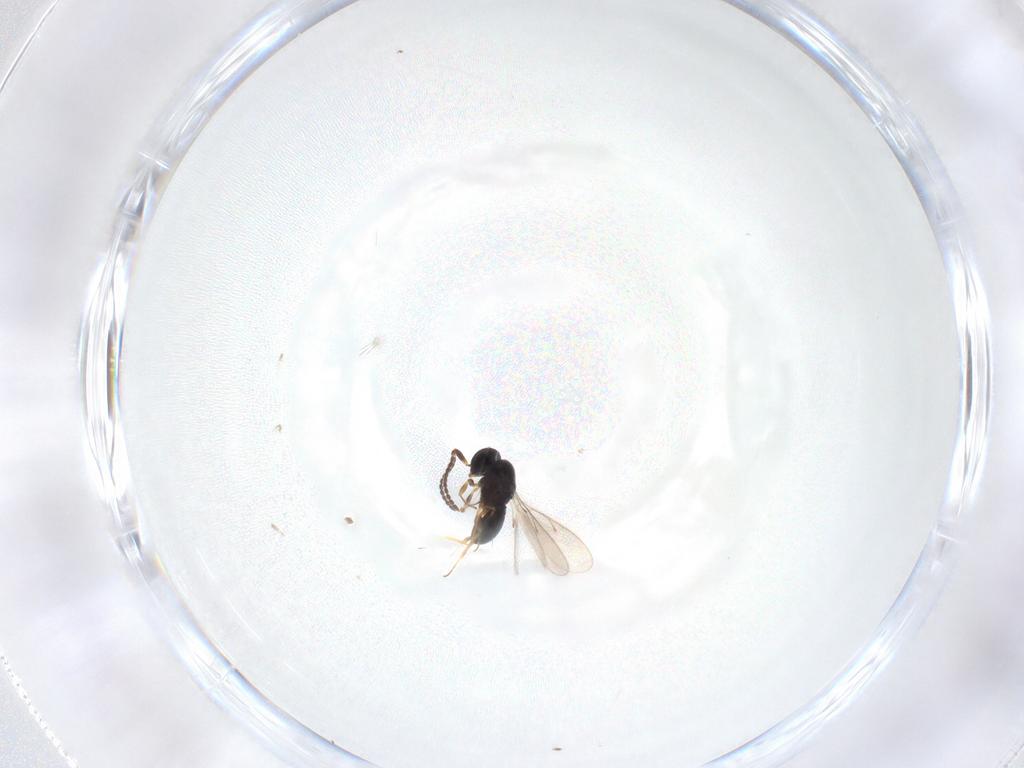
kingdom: Animalia
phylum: Arthropoda
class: Insecta
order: Hymenoptera
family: Scelionidae
